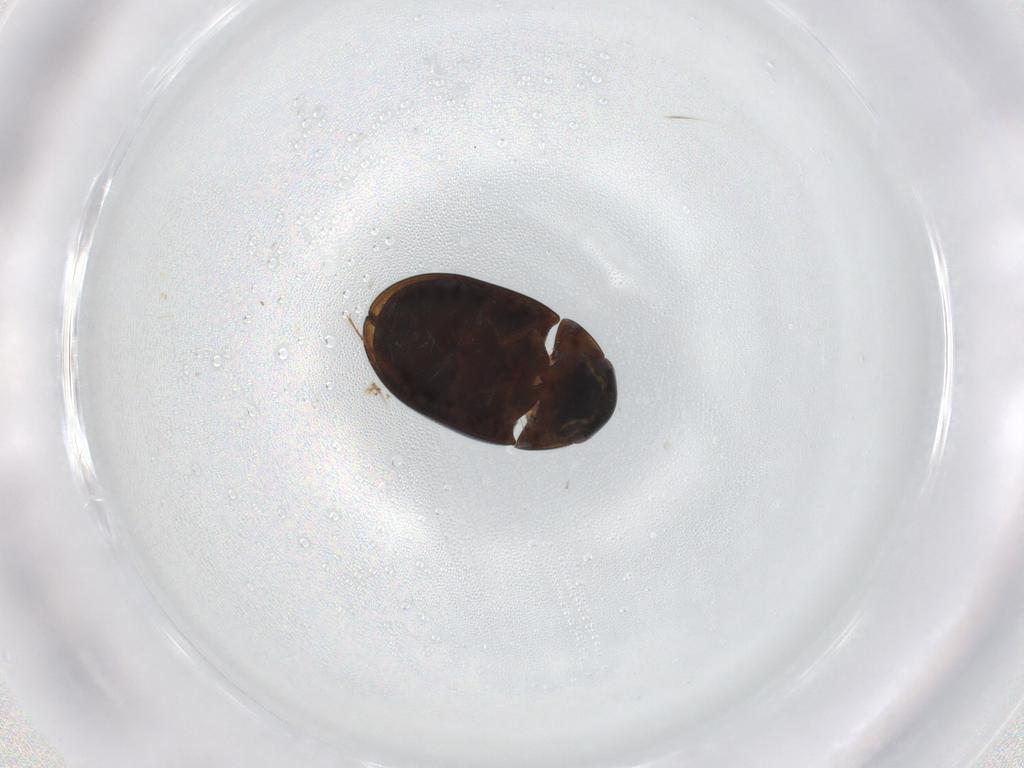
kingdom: Animalia
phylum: Arthropoda
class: Insecta
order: Coleoptera
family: Hydrophilidae
